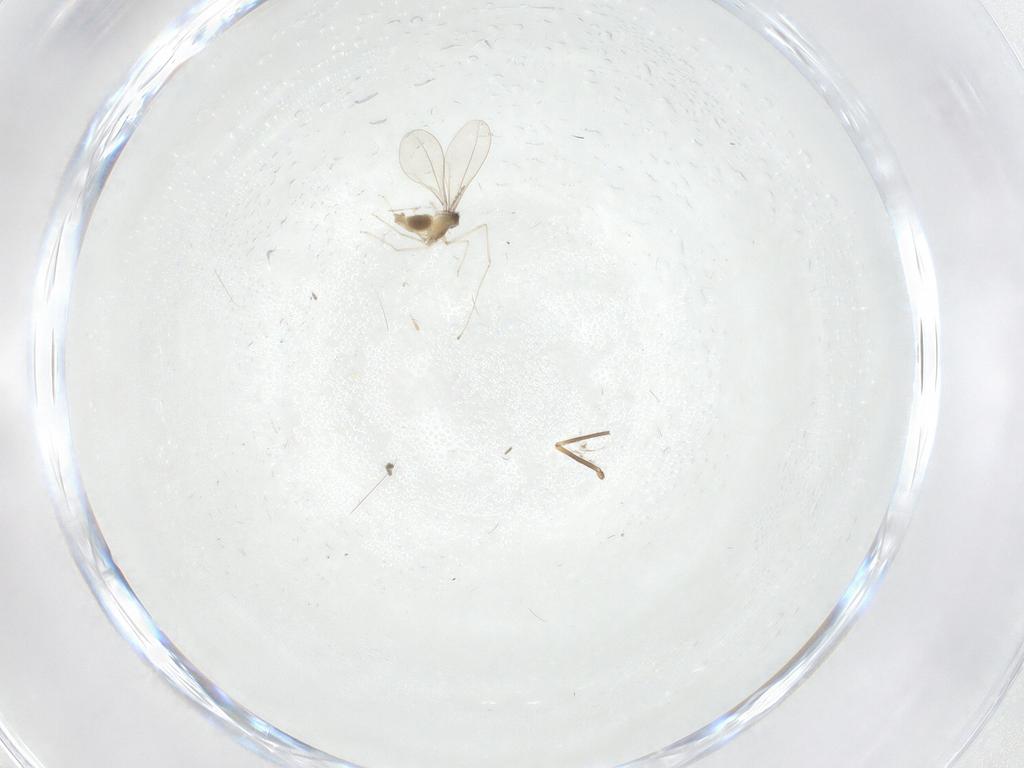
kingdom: Animalia
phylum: Arthropoda
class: Insecta
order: Diptera
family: Cecidomyiidae
